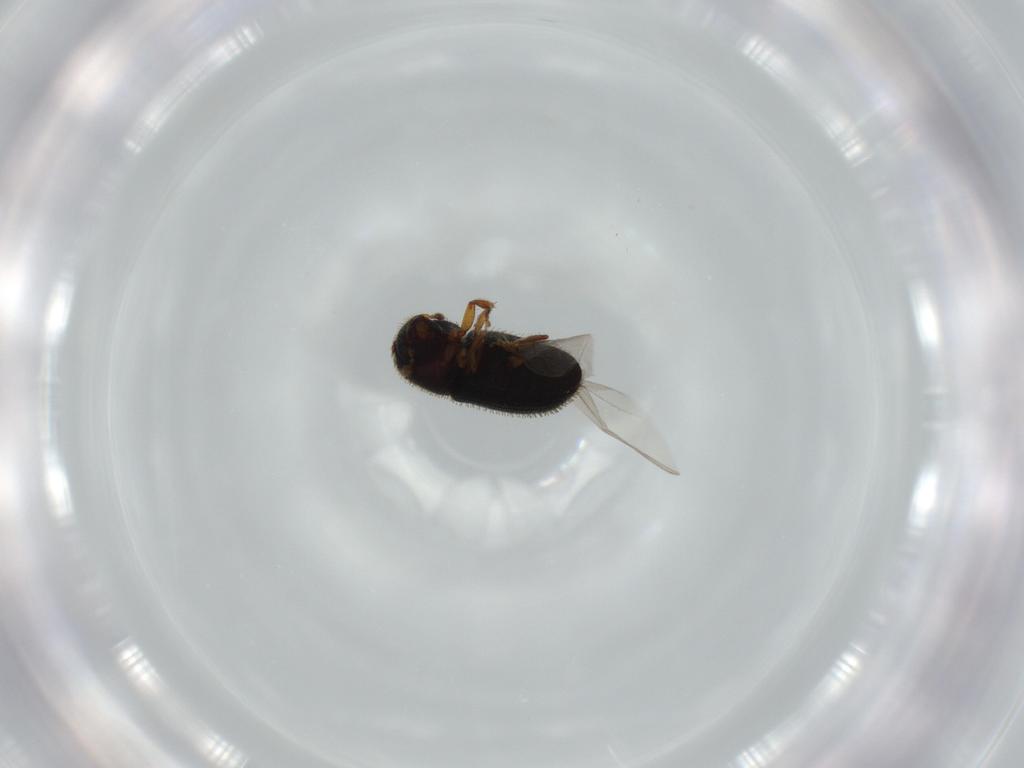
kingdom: Animalia
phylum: Arthropoda
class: Insecta
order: Coleoptera
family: Curculionidae
